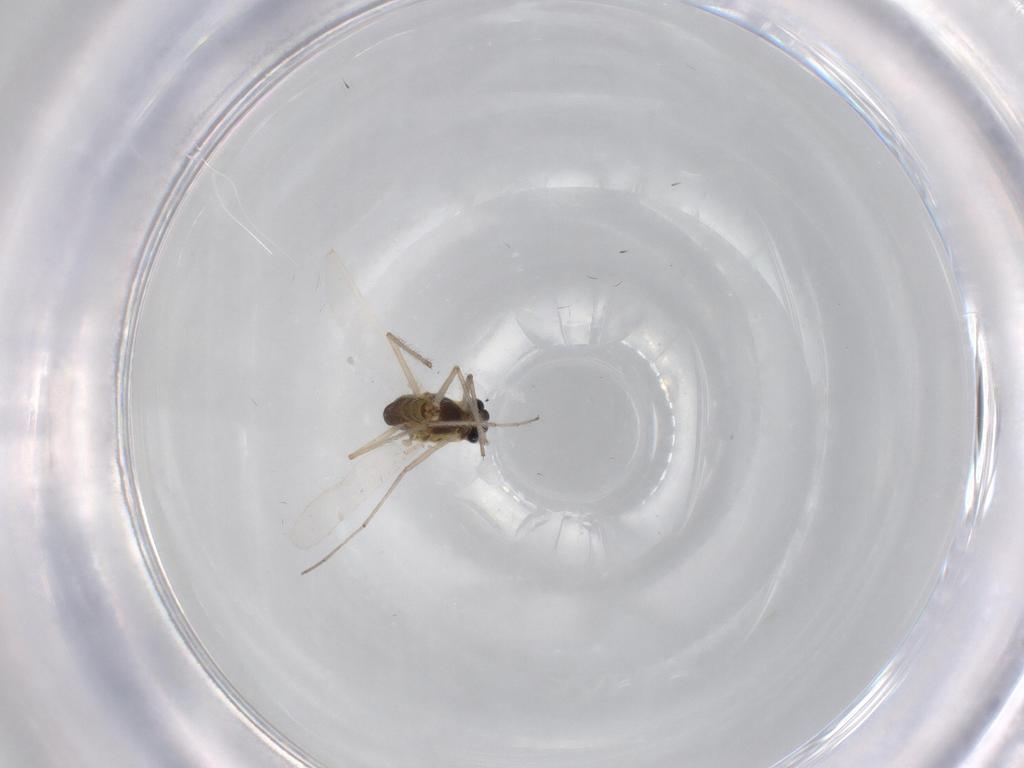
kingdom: Animalia
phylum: Arthropoda
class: Insecta
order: Diptera
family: Chironomidae
